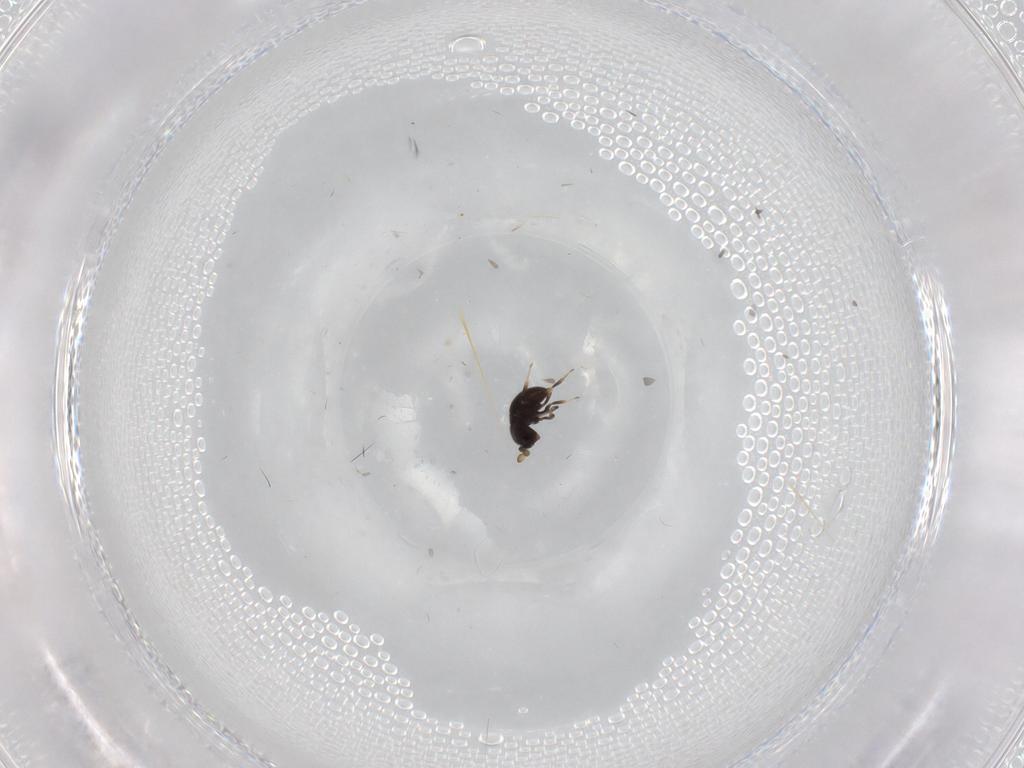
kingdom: Animalia
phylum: Arthropoda
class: Insecta
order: Hymenoptera
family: Scelionidae
